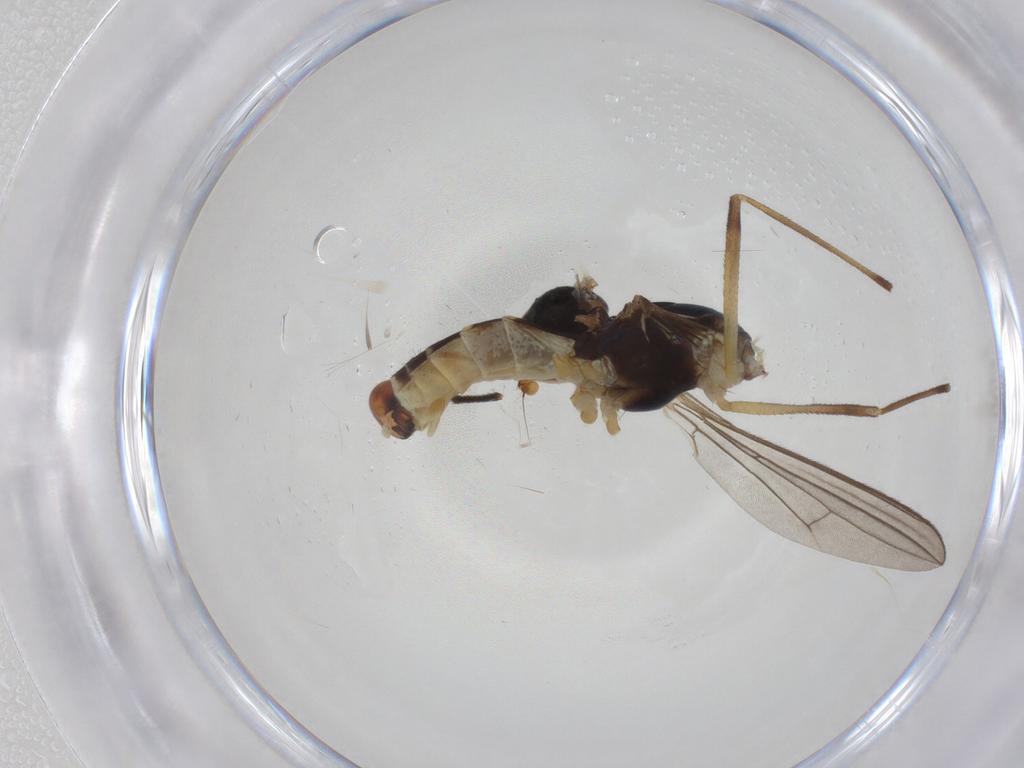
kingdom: Animalia
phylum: Arthropoda
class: Insecta
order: Diptera
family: Micropezidae
